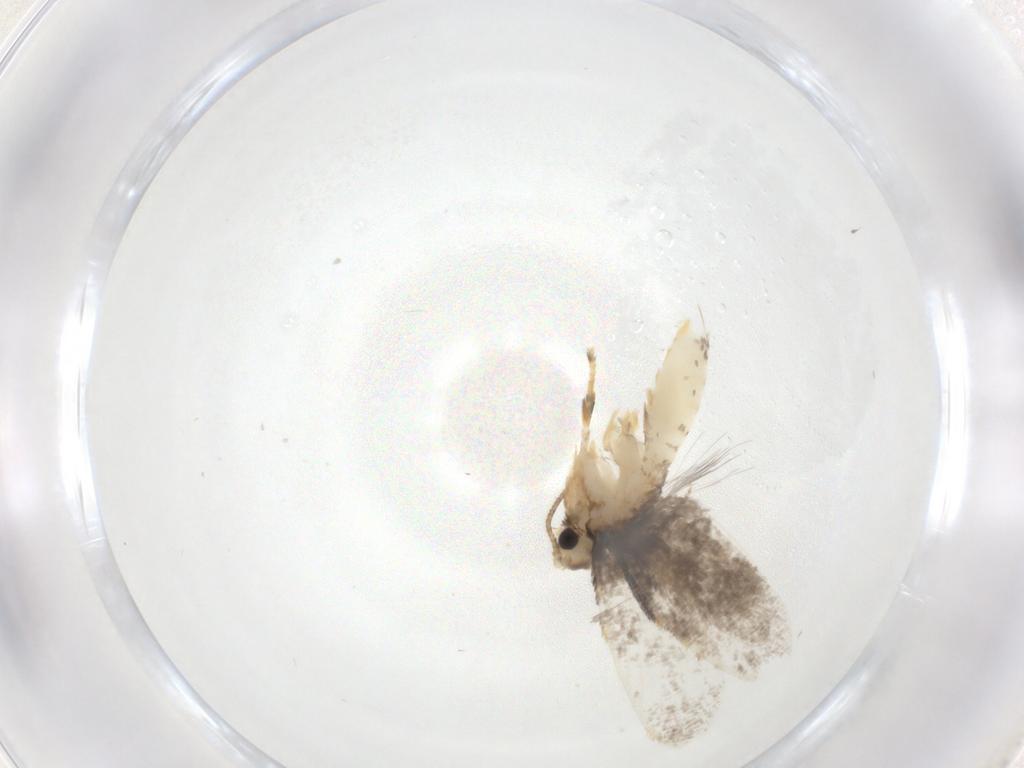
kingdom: Animalia
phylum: Arthropoda
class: Insecta
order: Lepidoptera
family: Psychidae
